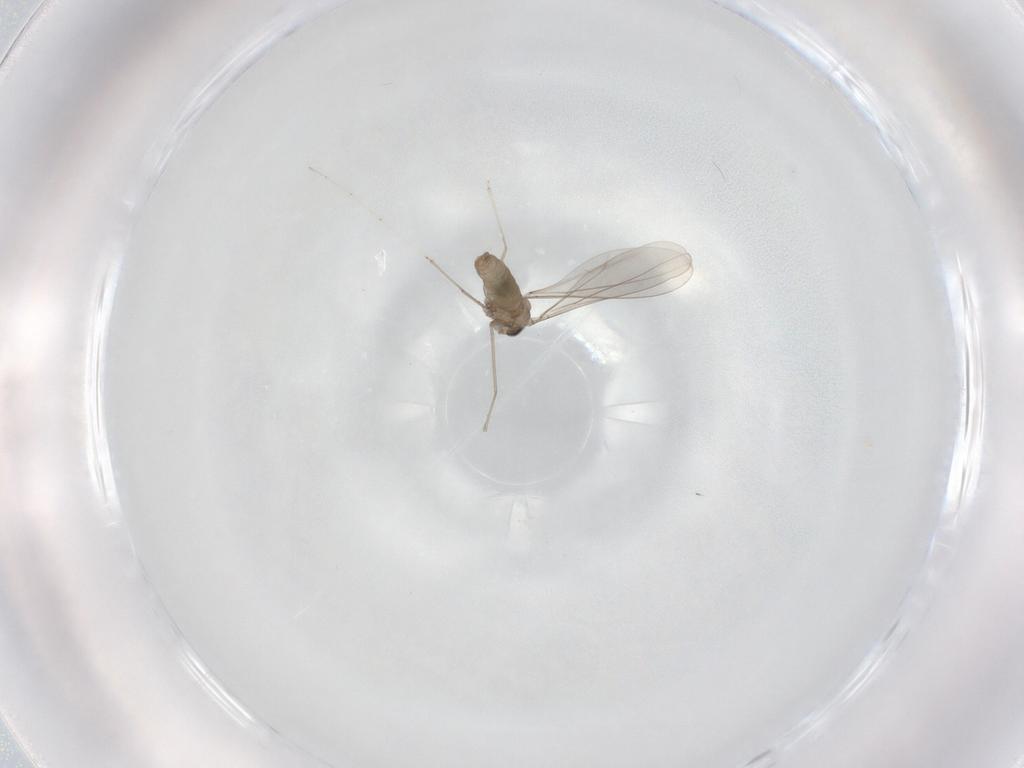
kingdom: Animalia
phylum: Arthropoda
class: Insecta
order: Diptera
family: Cecidomyiidae
